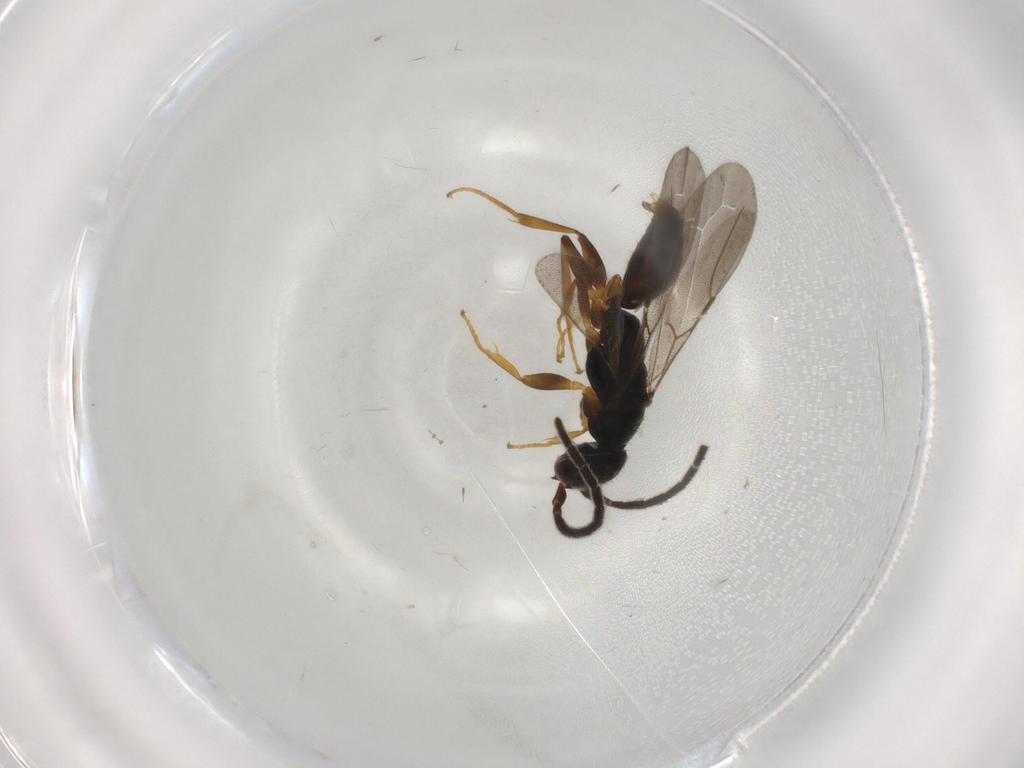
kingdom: Animalia
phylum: Arthropoda
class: Insecta
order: Hymenoptera
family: Bethylidae
